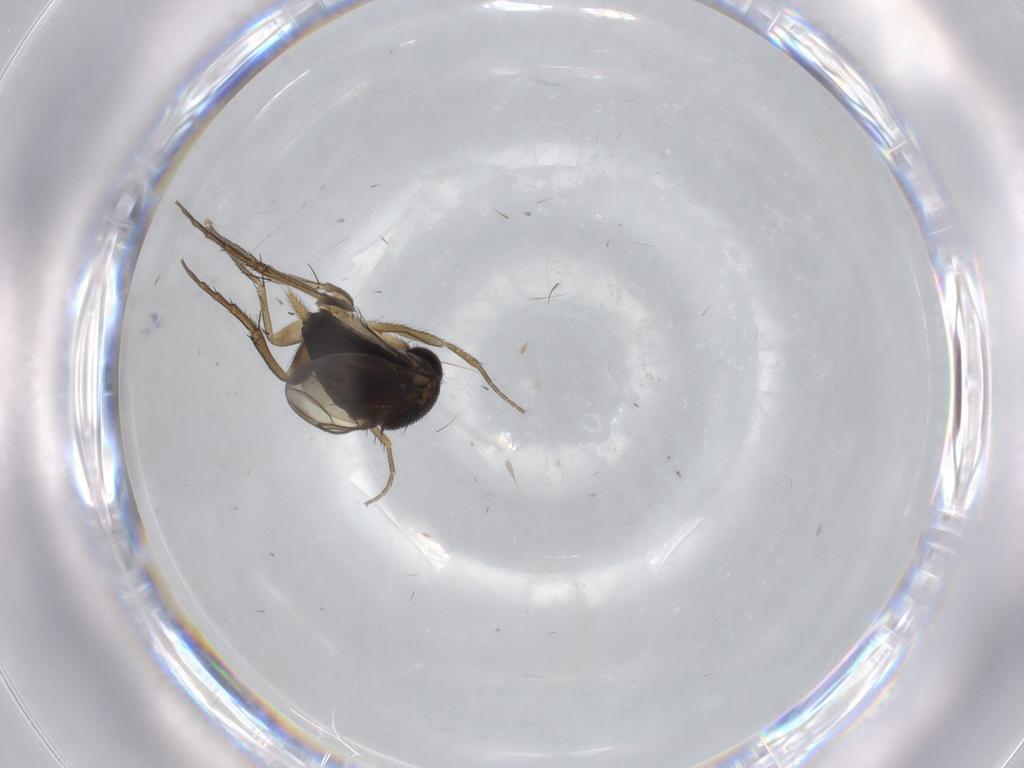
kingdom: Animalia
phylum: Arthropoda
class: Insecta
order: Diptera
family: Phoridae
